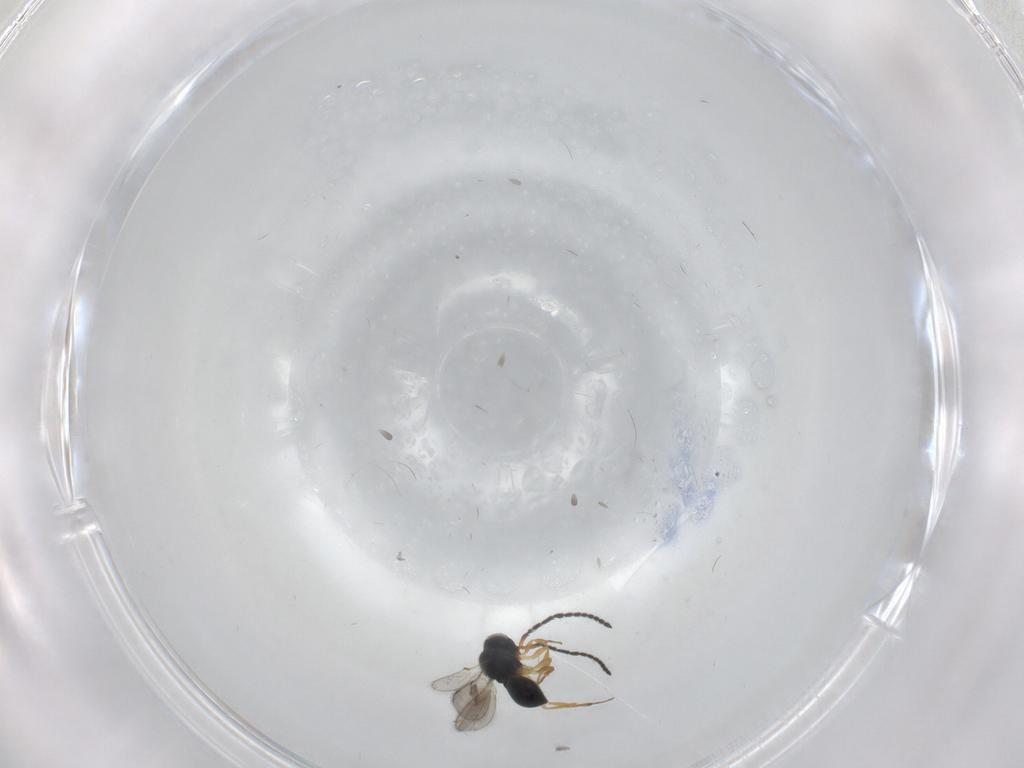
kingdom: Animalia
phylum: Arthropoda
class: Insecta
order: Hymenoptera
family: Scelionidae
